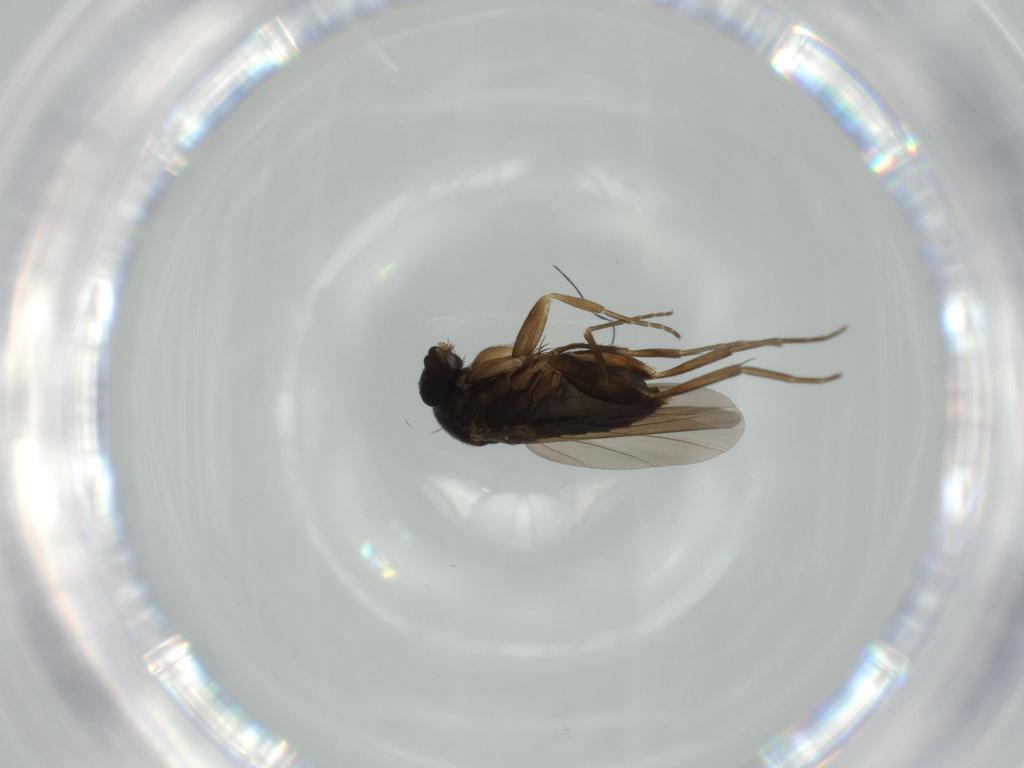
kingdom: Animalia
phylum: Arthropoda
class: Insecta
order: Diptera
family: Phoridae
